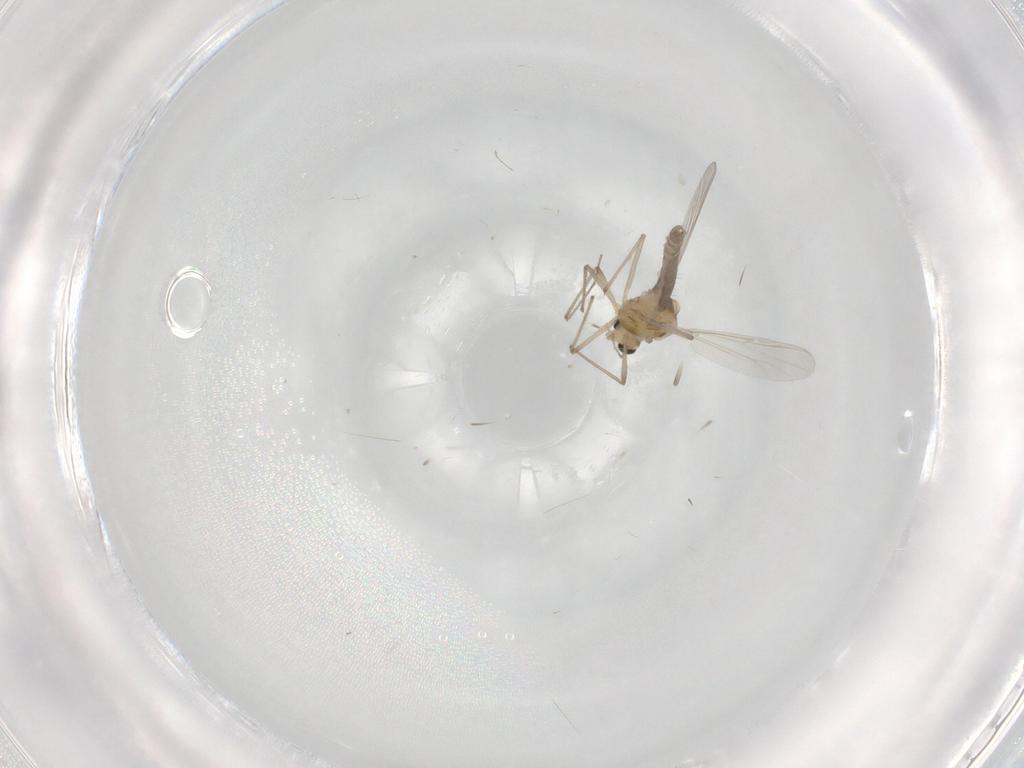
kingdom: Animalia
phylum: Arthropoda
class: Insecta
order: Diptera
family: Chironomidae
